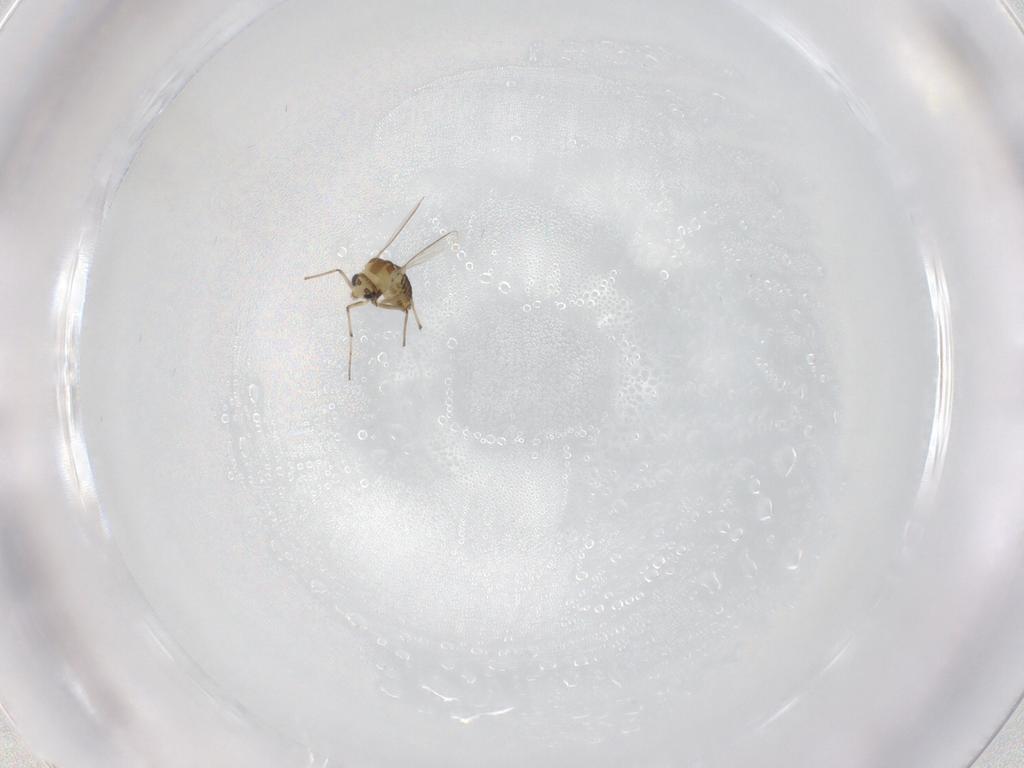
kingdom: Animalia
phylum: Arthropoda
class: Insecta
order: Diptera
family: Chironomidae
